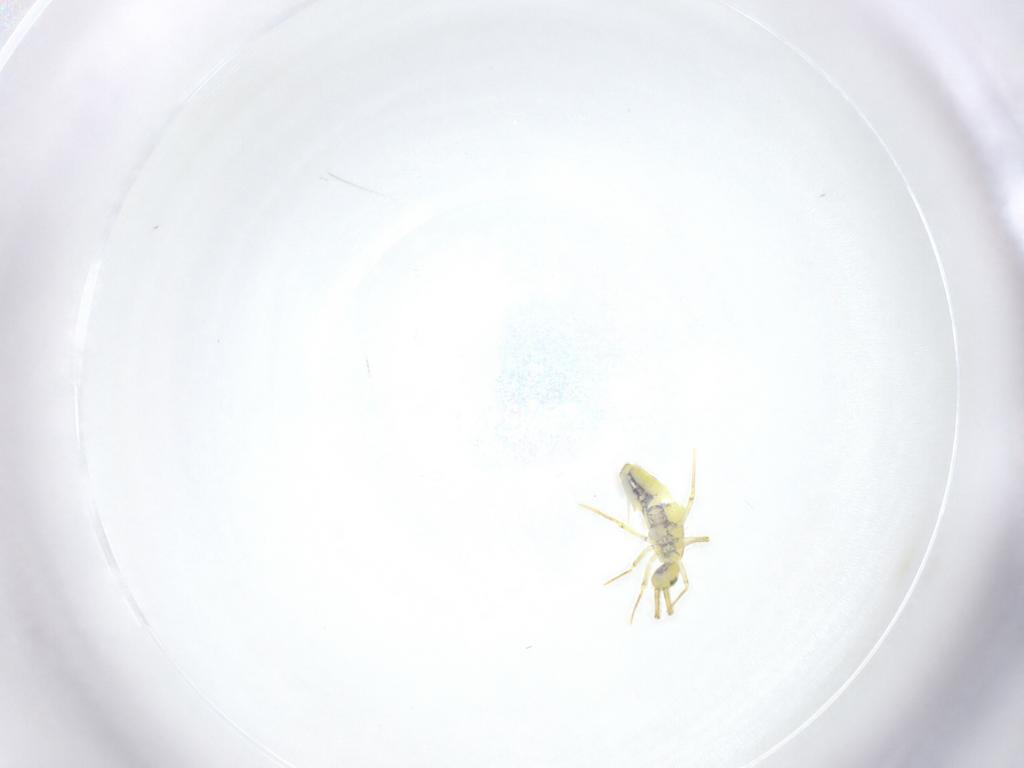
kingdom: Animalia
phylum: Arthropoda
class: Collembola
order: Entomobryomorpha
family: Entomobryidae
